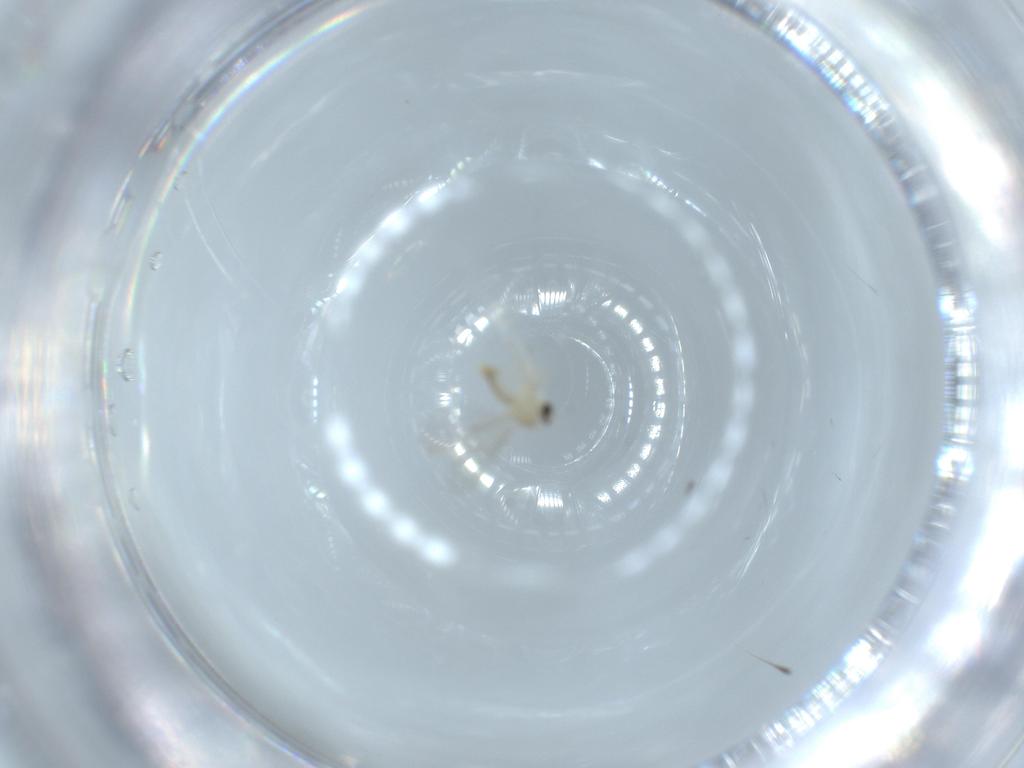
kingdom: Animalia
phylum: Arthropoda
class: Insecta
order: Diptera
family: Cecidomyiidae
